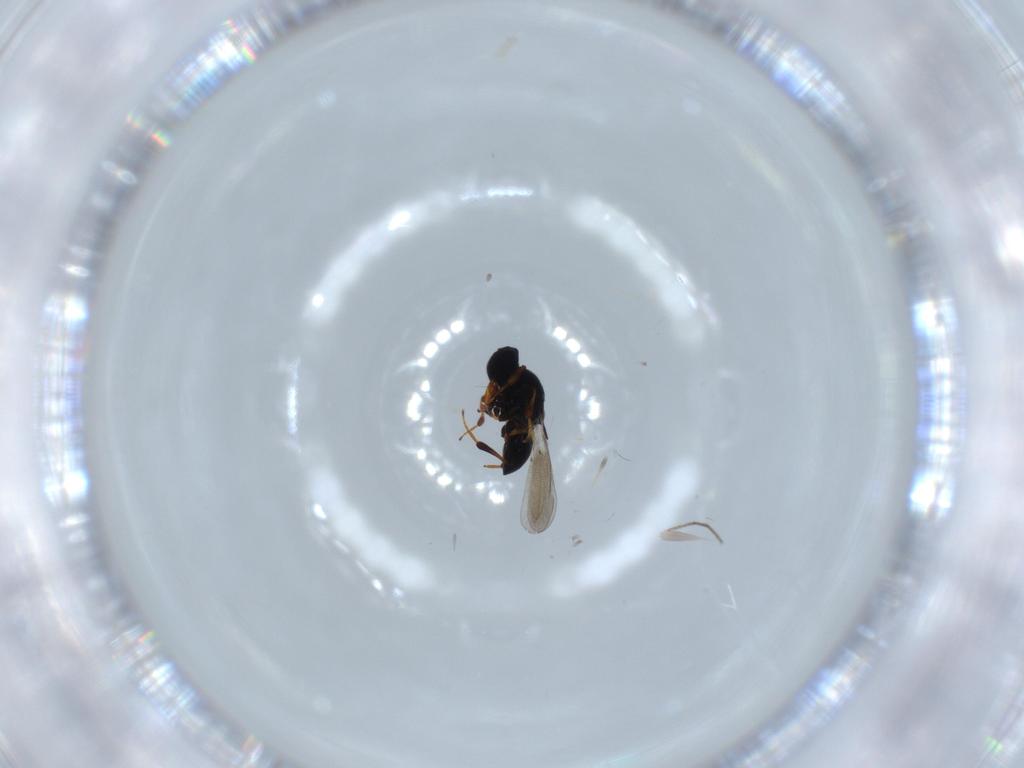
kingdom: Animalia
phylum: Arthropoda
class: Insecta
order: Hymenoptera
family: Platygastridae
